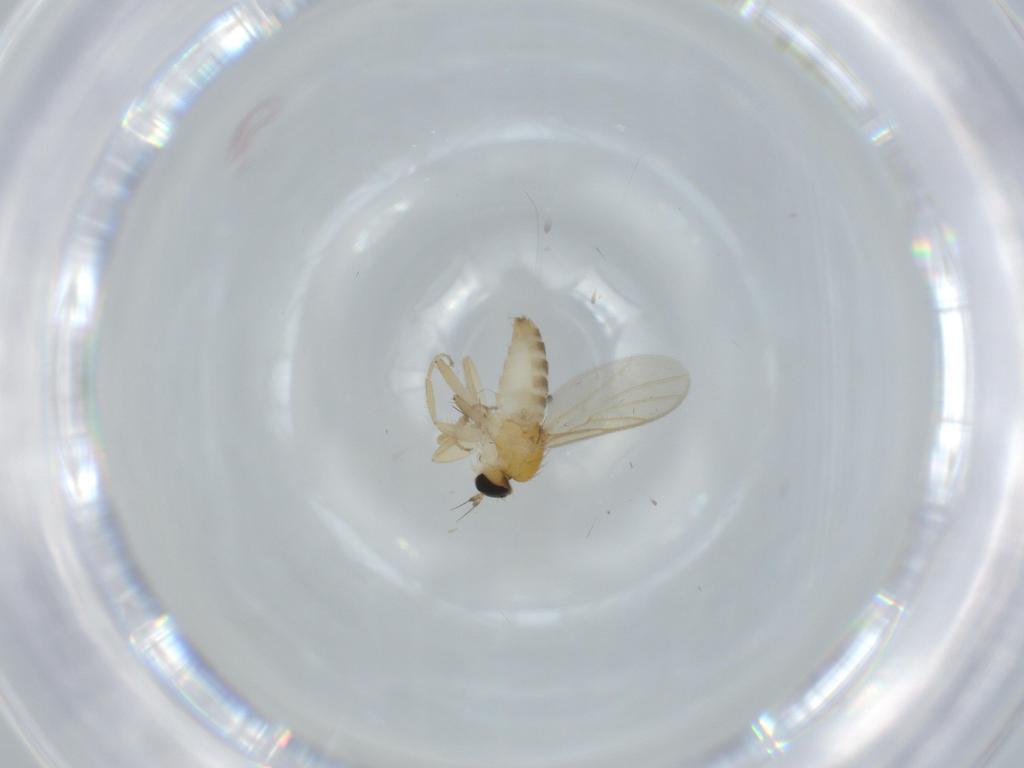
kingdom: Animalia
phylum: Arthropoda
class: Insecta
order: Diptera
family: Hybotidae
